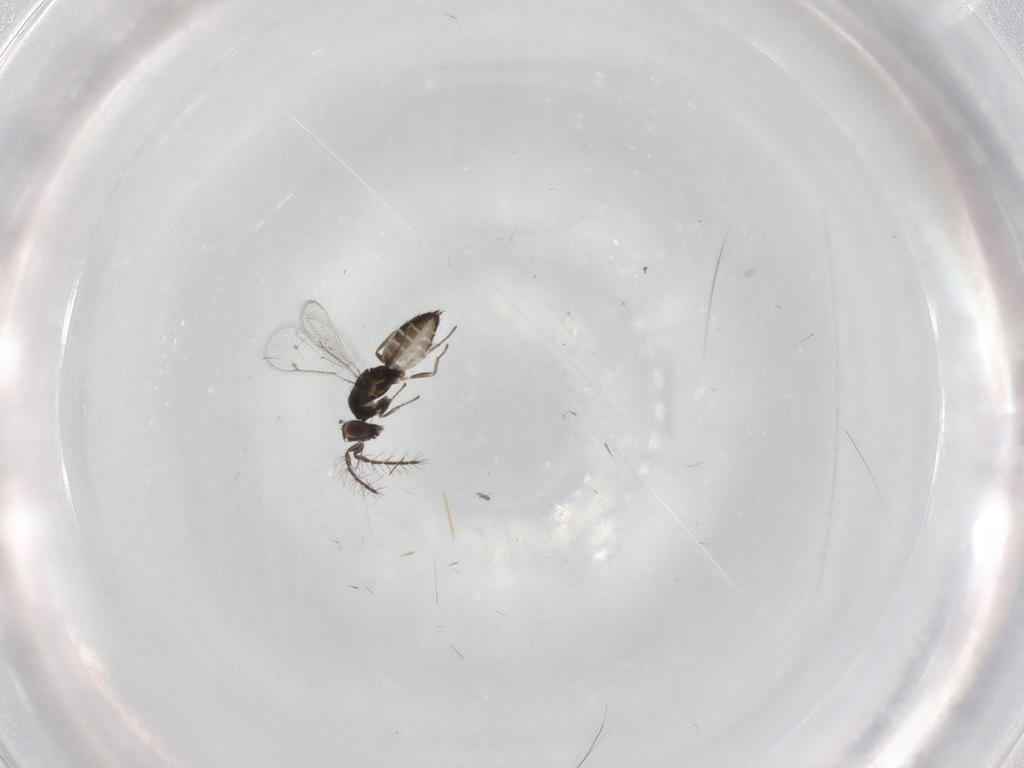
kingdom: Animalia
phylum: Arthropoda
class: Insecta
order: Diptera
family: Chironomidae
